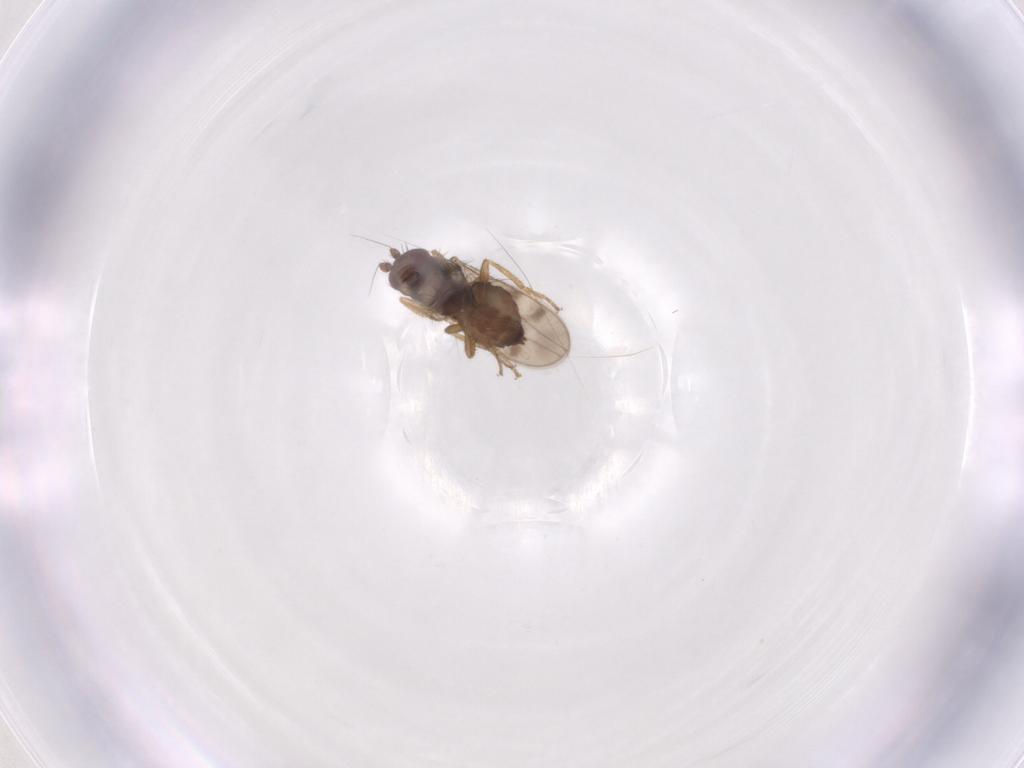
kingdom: Animalia
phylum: Arthropoda
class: Insecta
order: Diptera
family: Sphaeroceridae
